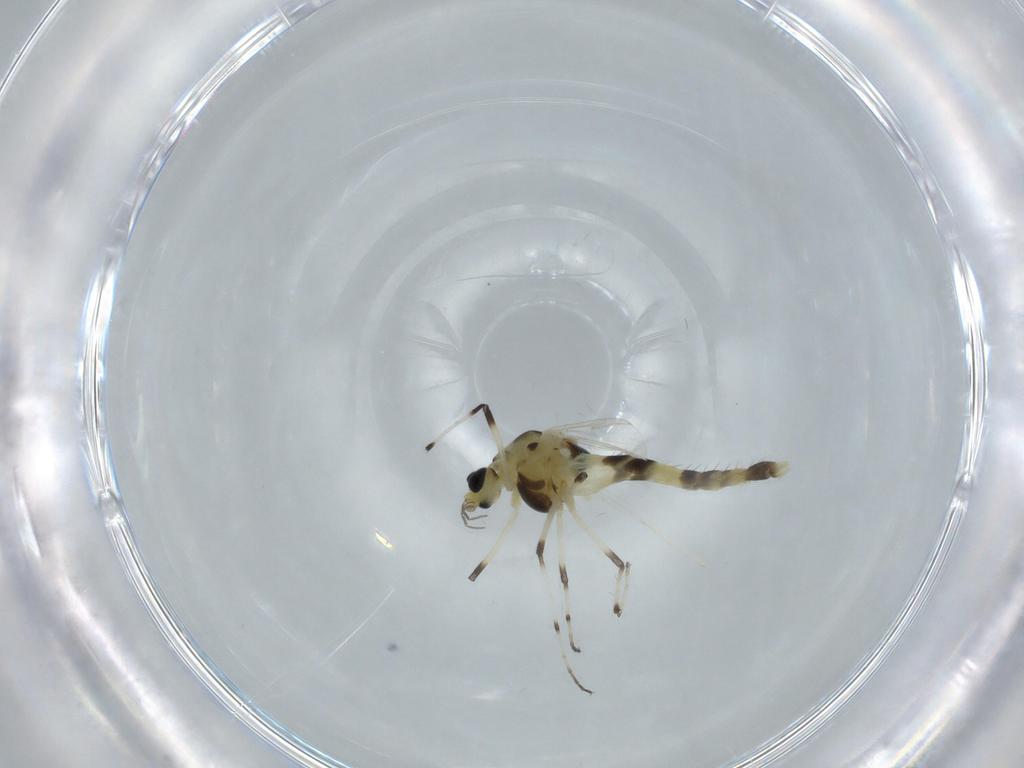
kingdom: Animalia
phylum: Arthropoda
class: Insecta
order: Diptera
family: Chironomidae
